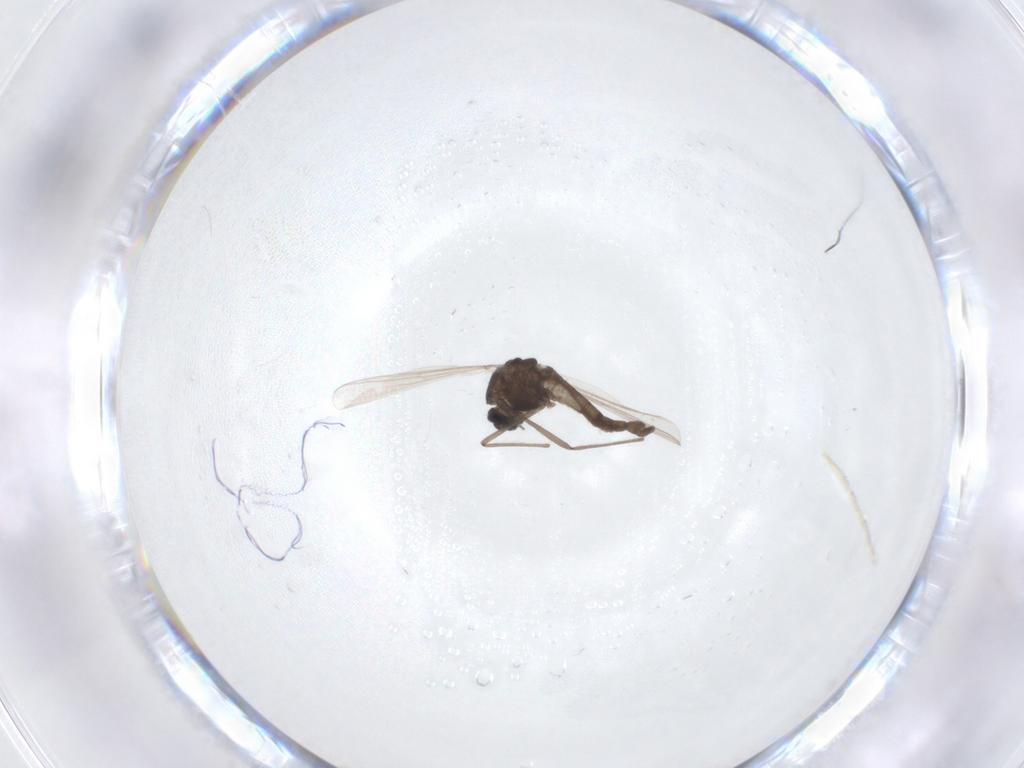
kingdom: Animalia
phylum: Arthropoda
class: Insecta
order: Diptera
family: Chironomidae
